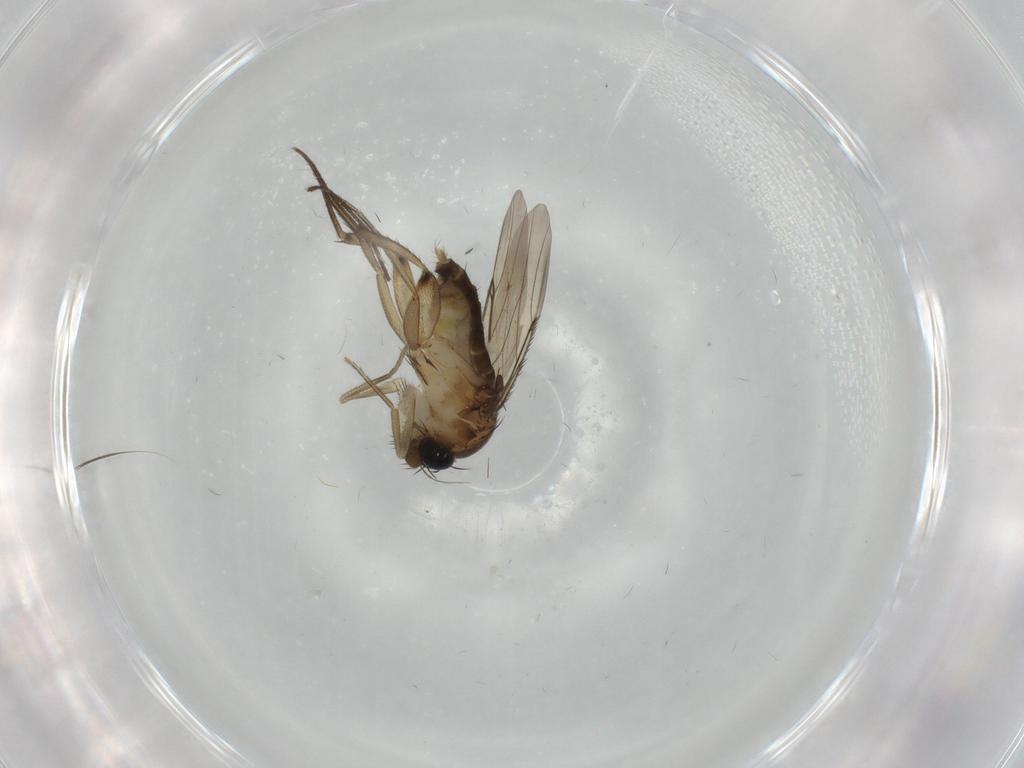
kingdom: Animalia
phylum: Arthropoda
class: Insecta
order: Diptera
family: Phoridae
